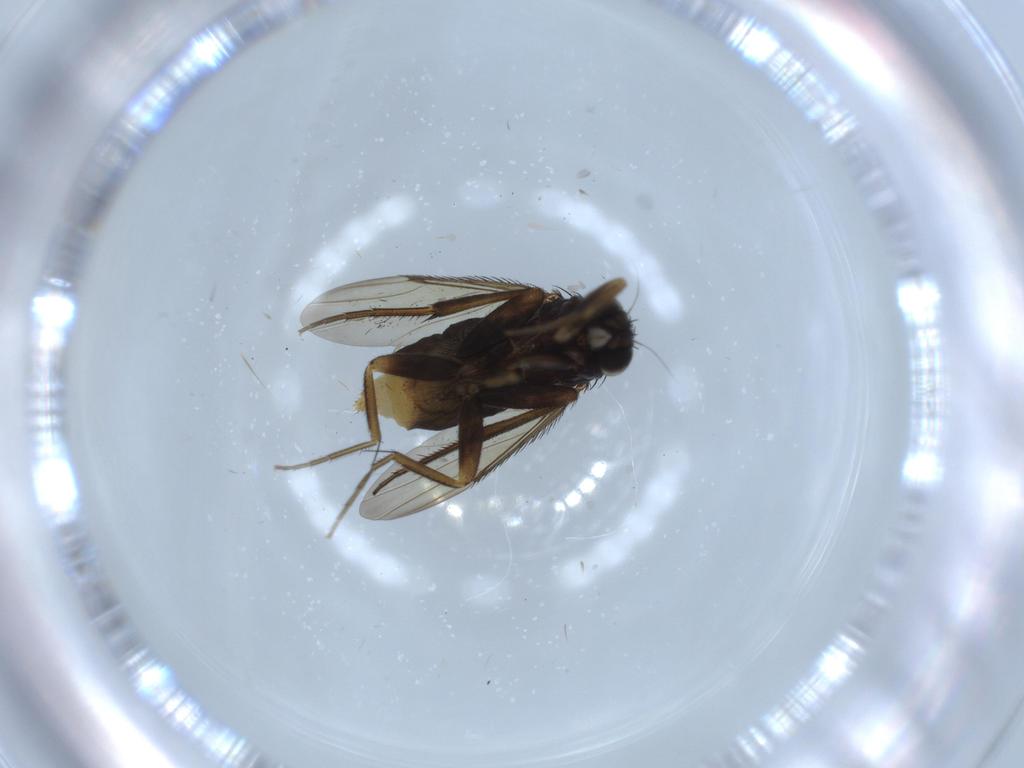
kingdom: Animalia
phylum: Arthropoda
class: Insecta
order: Diptera
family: Phoridae
